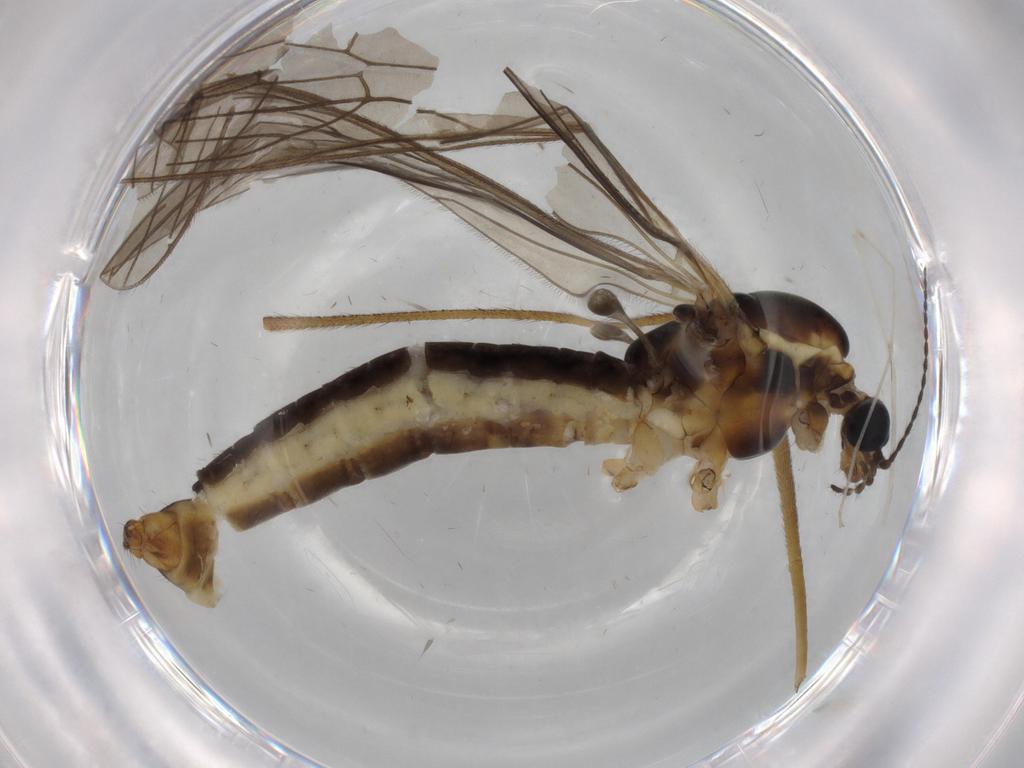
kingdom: Animalia
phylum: Arthropoda
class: Insecta
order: Diptera
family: Limoniidae
